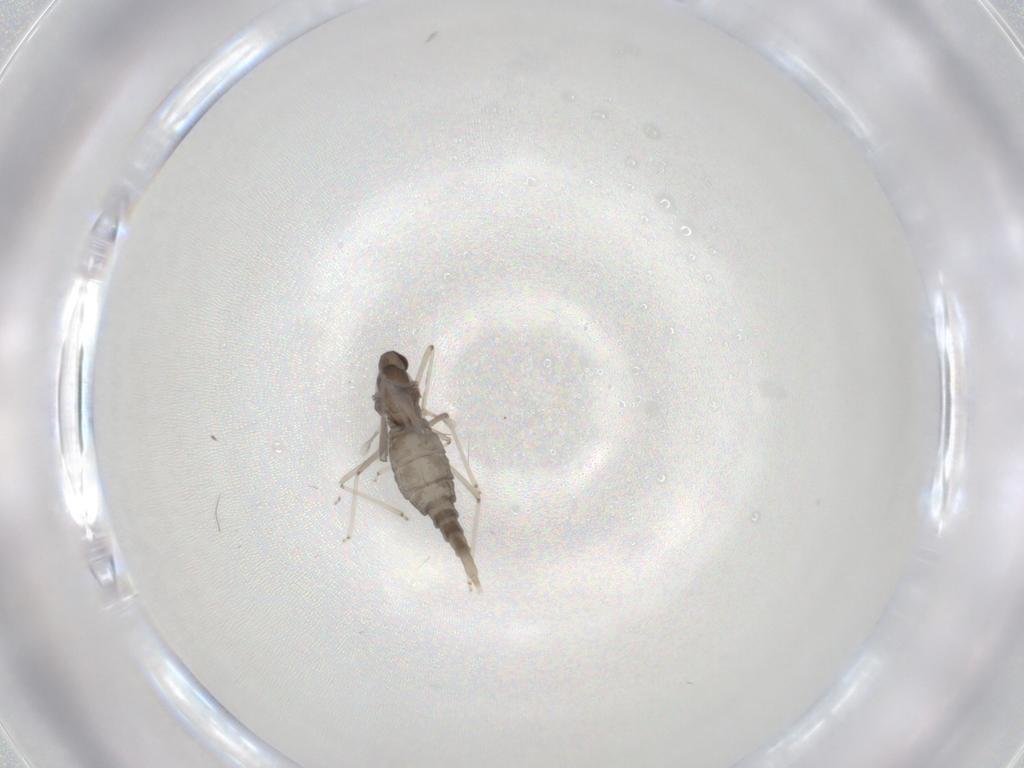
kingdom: Animalia
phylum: Arthropoda
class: Insecta
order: Diptera
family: Cecidomyiidae
